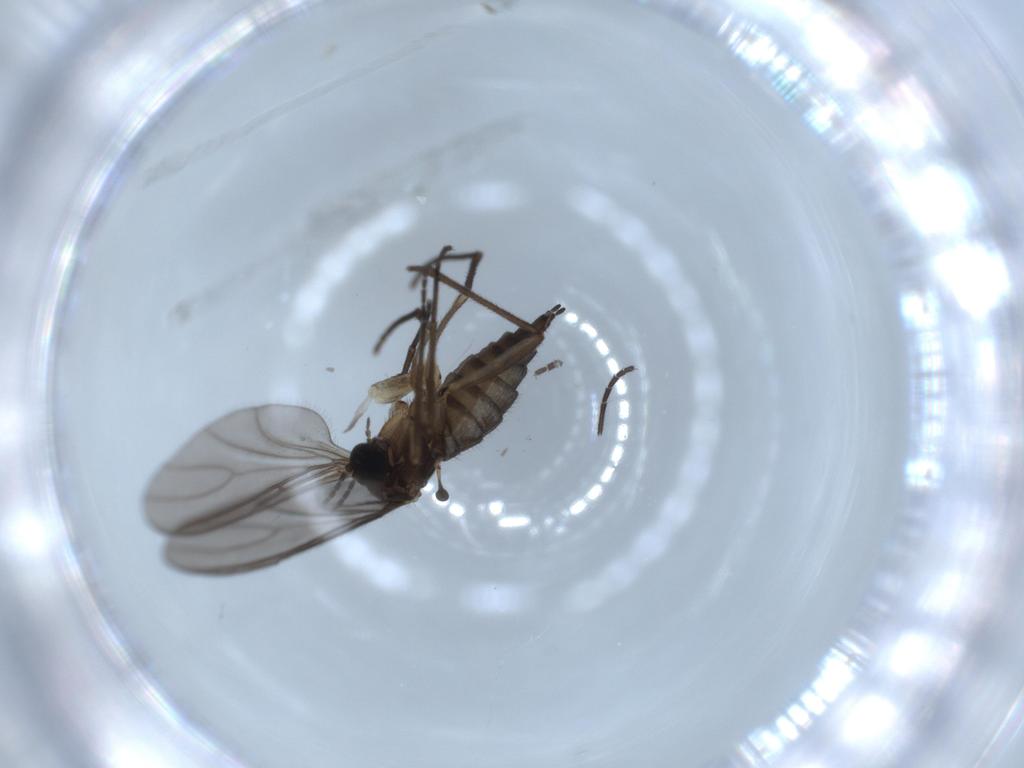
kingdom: Animalia
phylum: Arthropoda
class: Insecta
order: Diptera
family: Sciaridae
